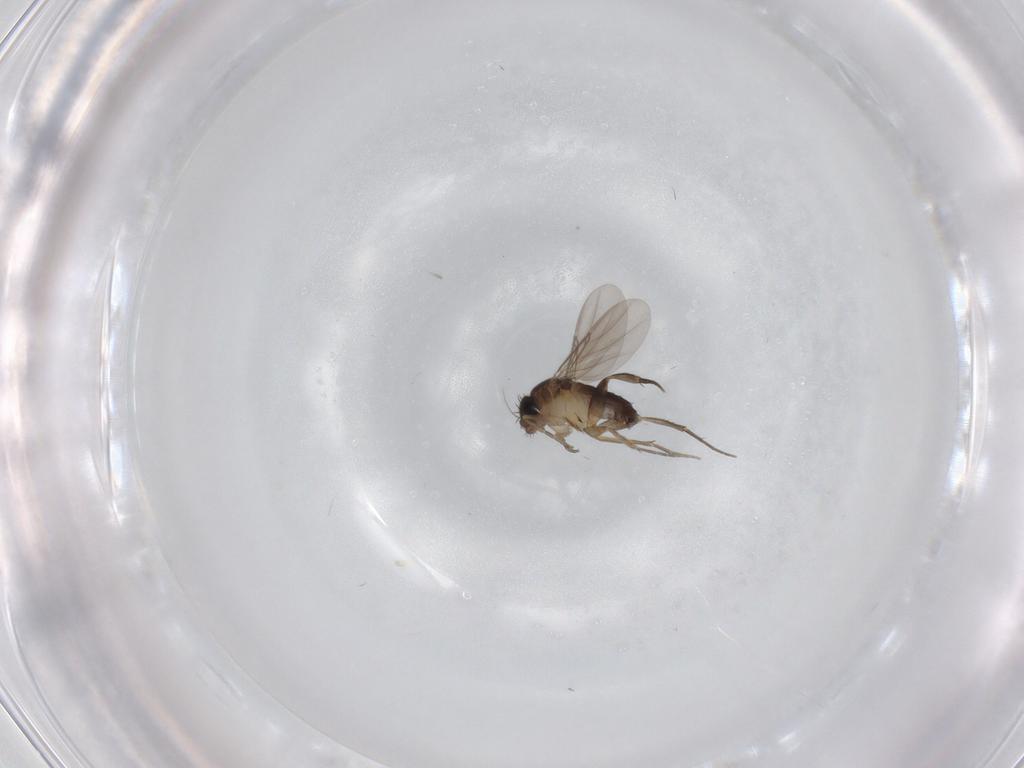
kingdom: Animalia
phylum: Arthropoda
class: Insecta
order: Diptera
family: Phoridae
